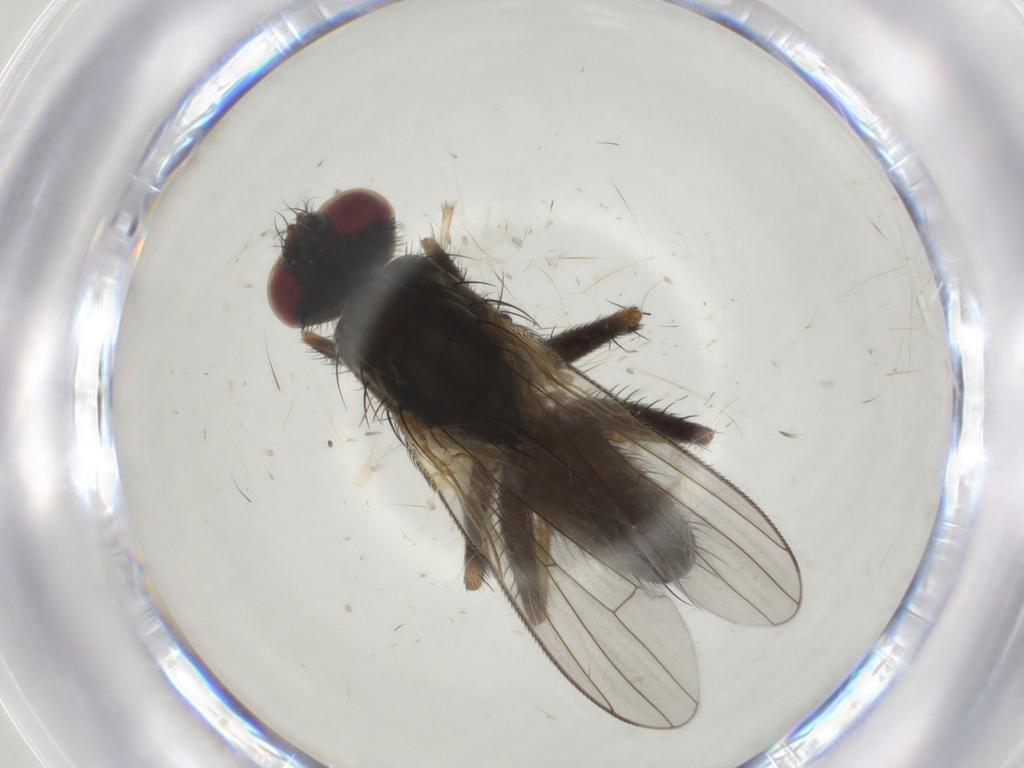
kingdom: Animalia
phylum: Arthropoda
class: Insecta
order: Diptera
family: Muscidae
